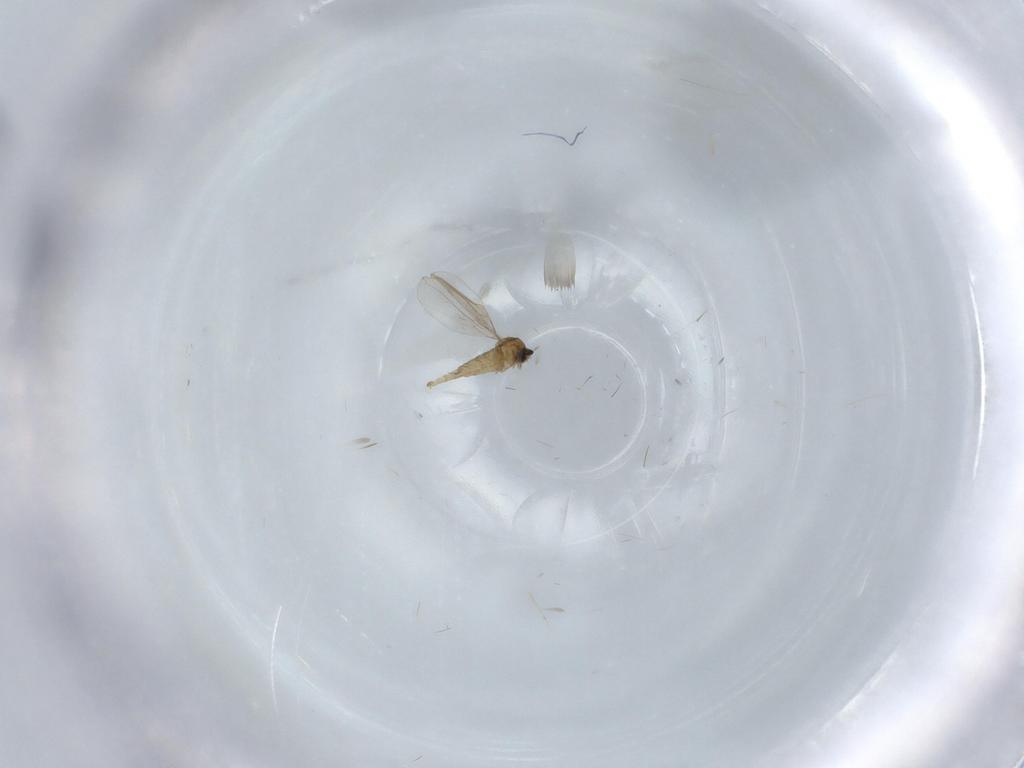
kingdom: Animalia
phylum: Arthropoda
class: Insecta
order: Diptera
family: Cecidomyiidae
